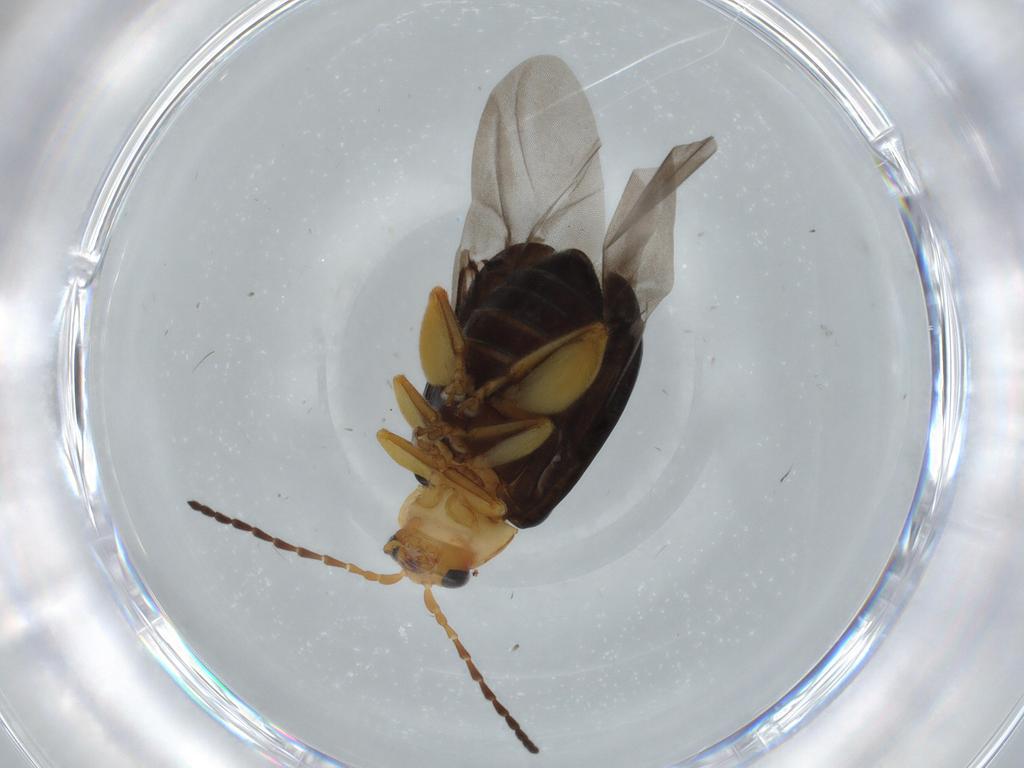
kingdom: Animalia
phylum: Arthropoda
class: Insecta
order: Coleoptera
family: Chrysomelidae
